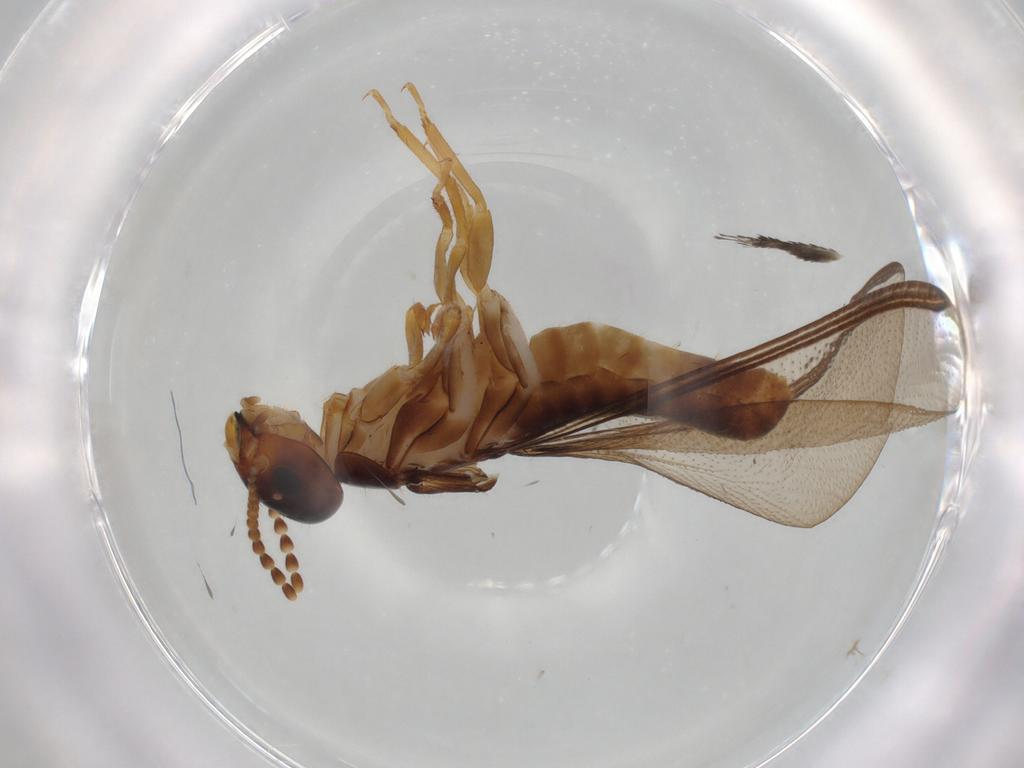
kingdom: Animalia
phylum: Arthropoda
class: Insecta
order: Blattodea
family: Kalotermitidae
